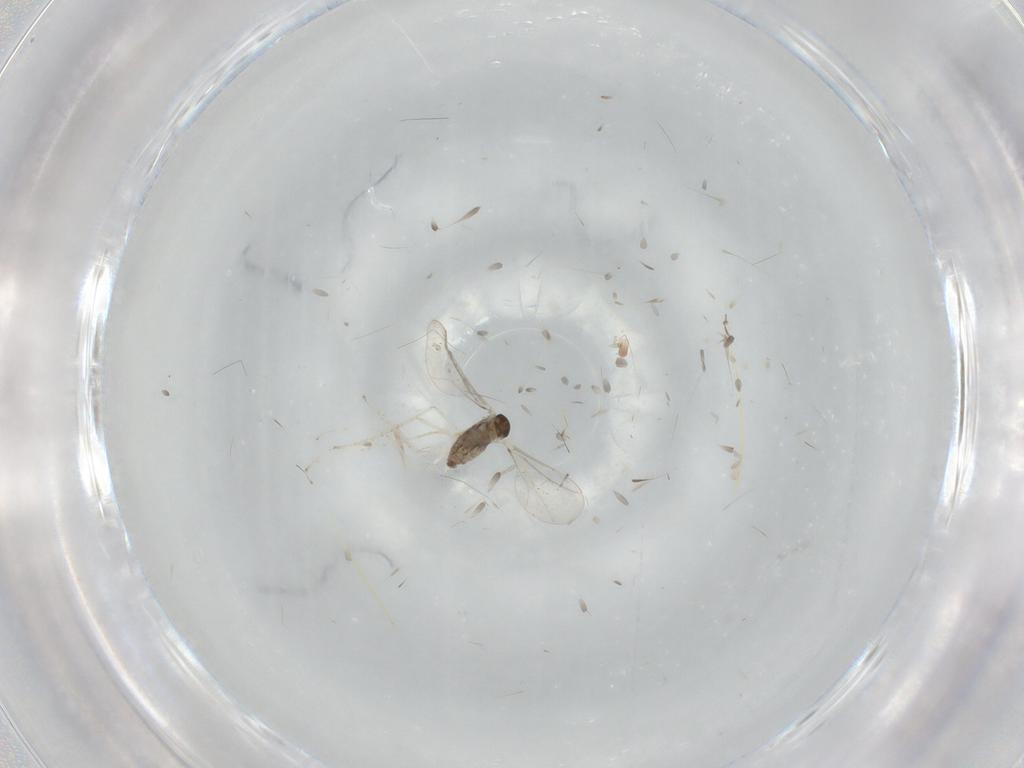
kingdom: Animalia
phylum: Arthropoda
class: Insecta
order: Diptera
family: Cecidomyiidae
